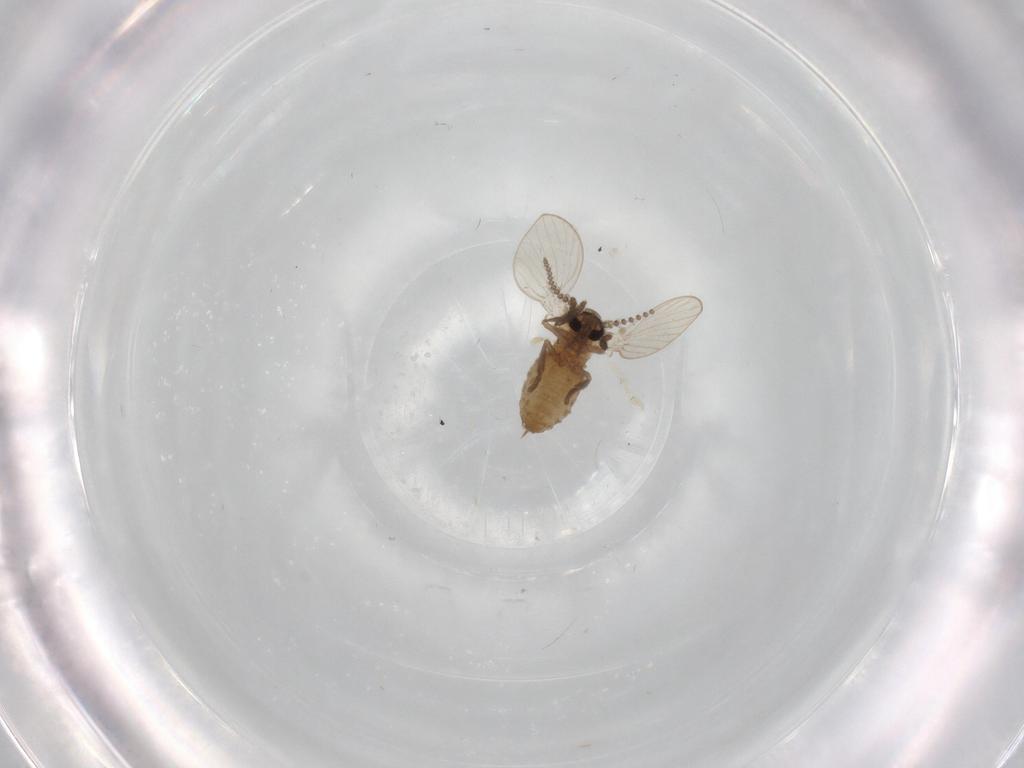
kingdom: Animalia
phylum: Arthropoda
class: Insecta
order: Diptera
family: Psychodidae
